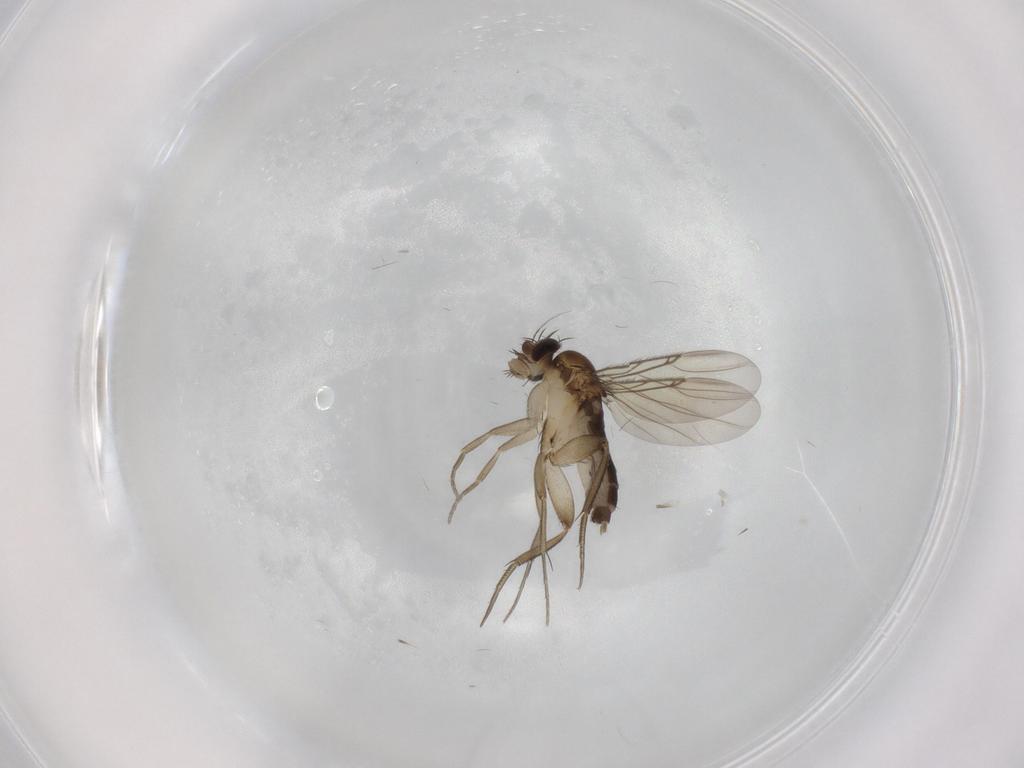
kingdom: Animalia
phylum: Arthropoda
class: Insecta
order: Diptera
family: Phoridae
